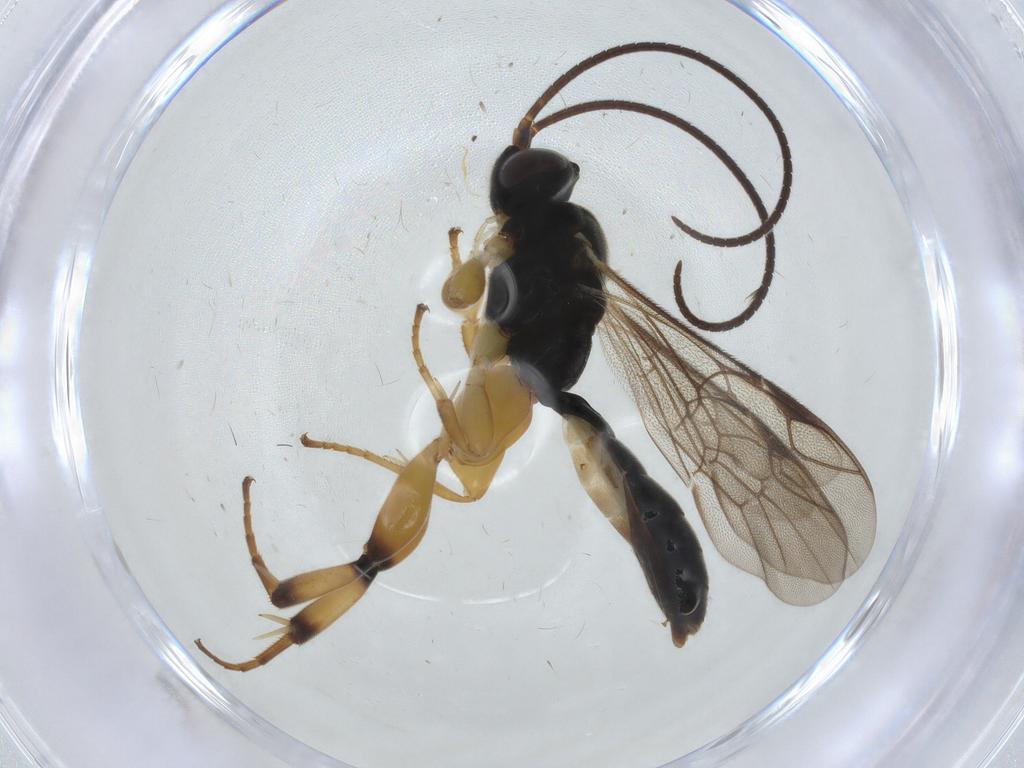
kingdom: Animalia
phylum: Arthropoda
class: Insecta
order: Hymenoptera
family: Ichneumonidae
